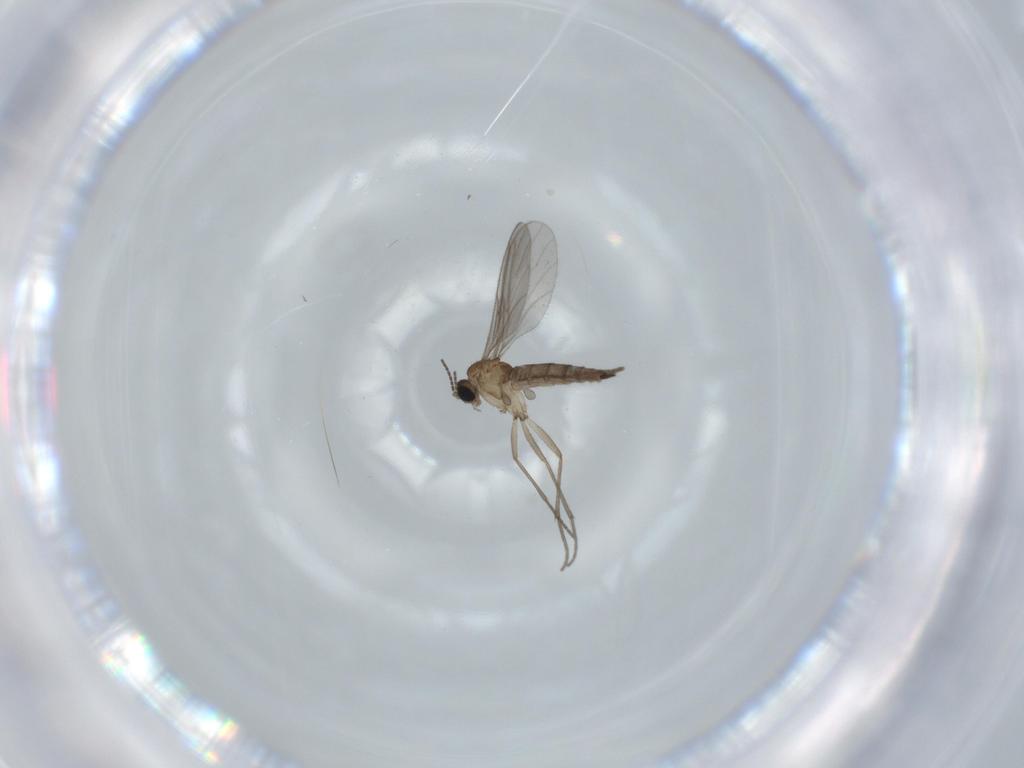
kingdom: Animalia
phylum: Arthropoda
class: Insecta
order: Diptera
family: Sciaridae
